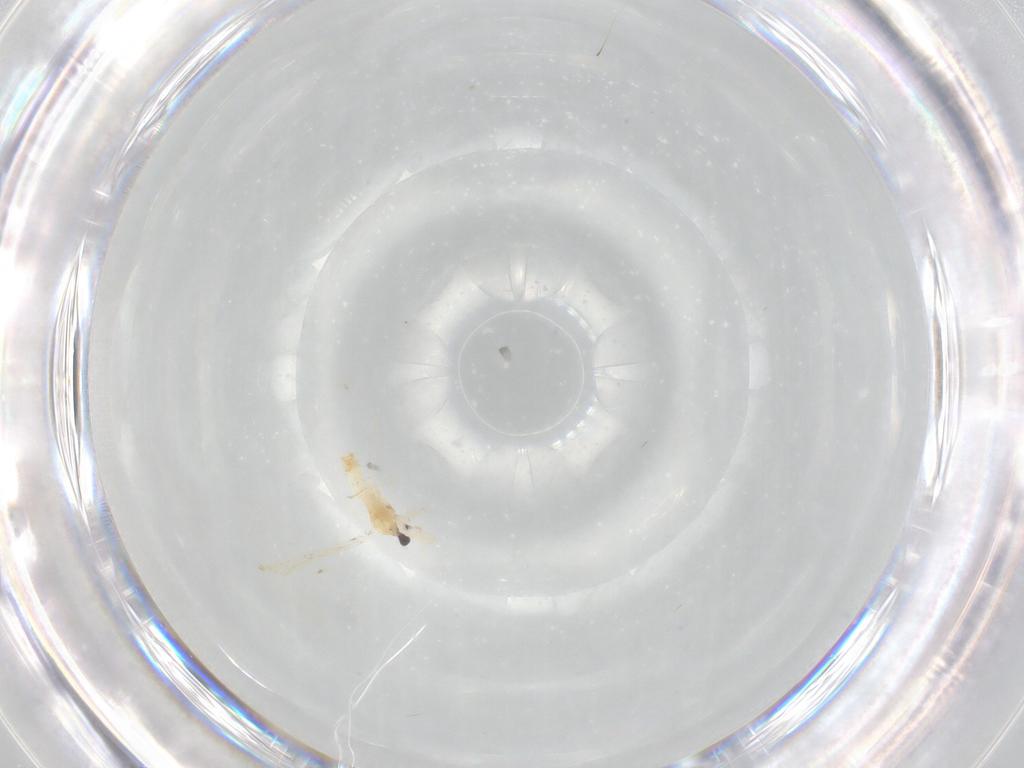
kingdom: Animalia
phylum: Arthropoda
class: Insecta
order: Diptera
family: Cecidomyiidae
